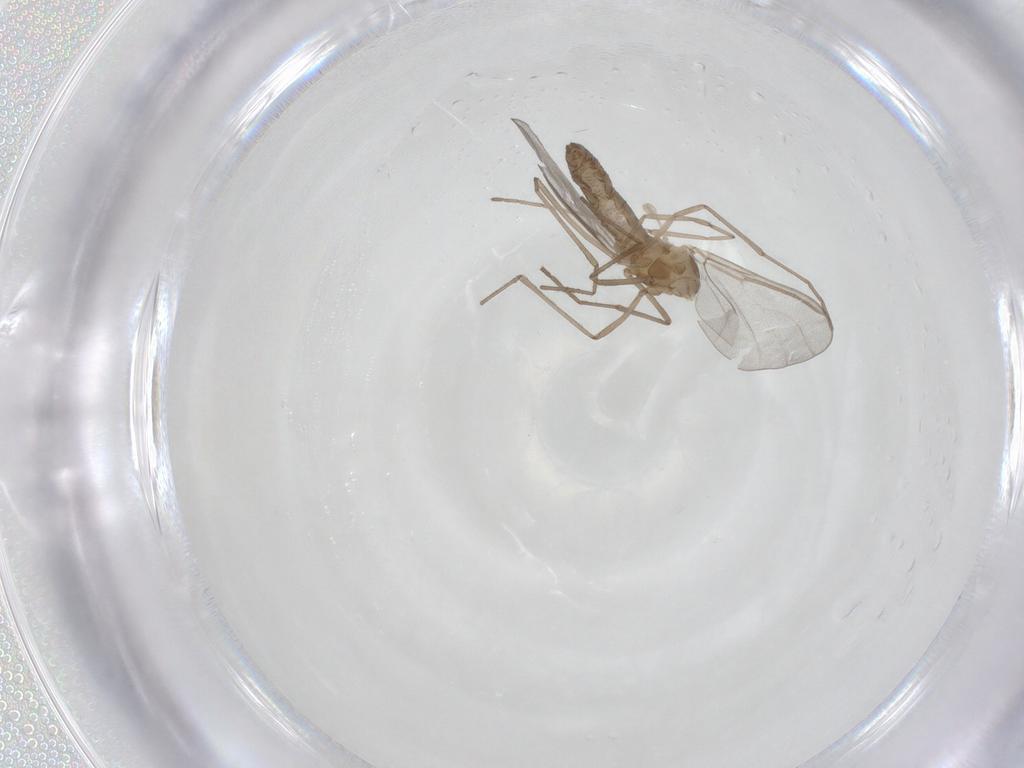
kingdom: Animalia
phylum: Arthropoda
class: Insecta
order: Diptera
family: Cecidomyiidae
